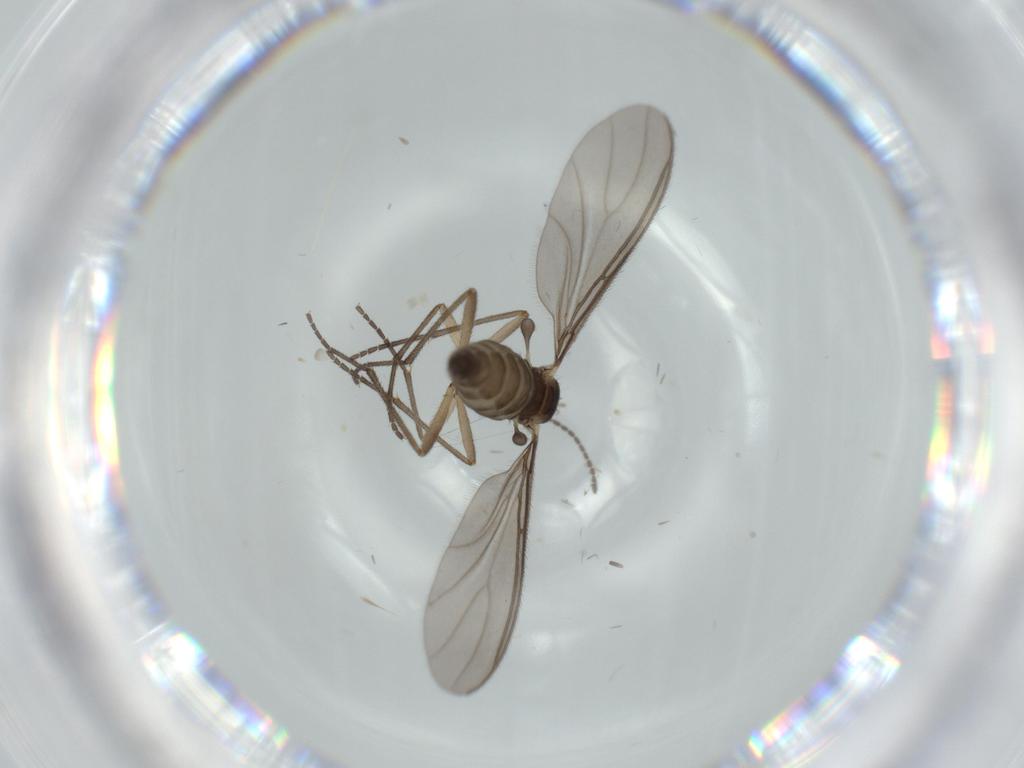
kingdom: Animalia
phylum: Arthropoda
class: Insecta
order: Diptera
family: Sciaridae
